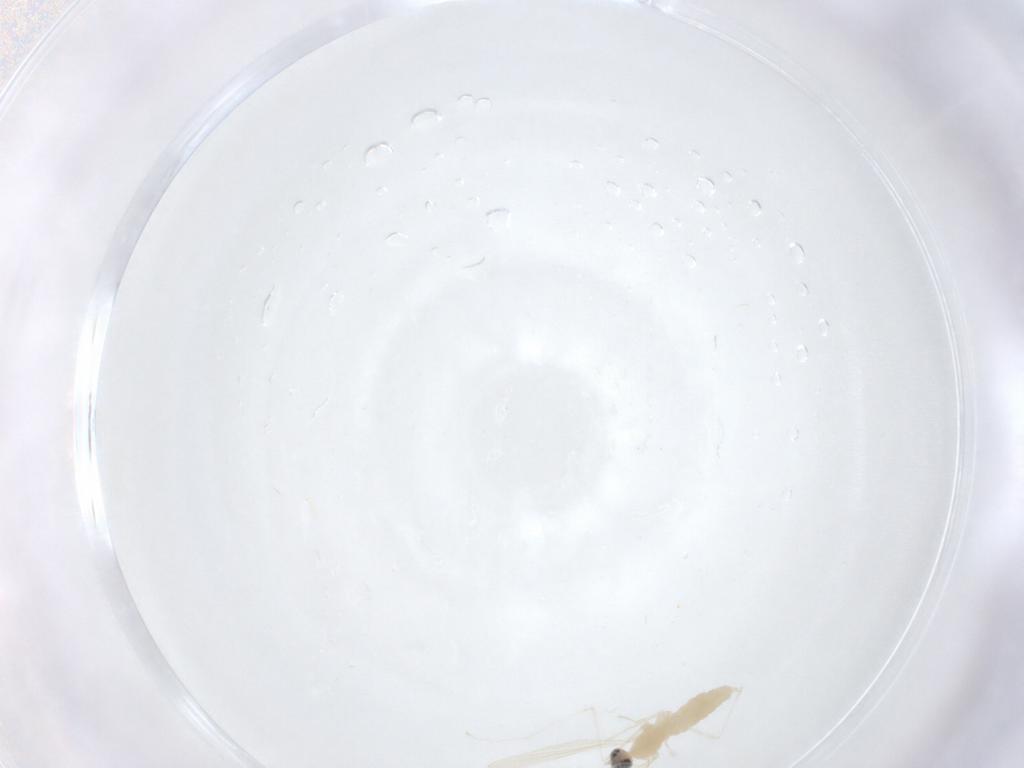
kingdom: Animalia
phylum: Arthropoda
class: Insecta
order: Diptera
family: Cecidomyiidae
